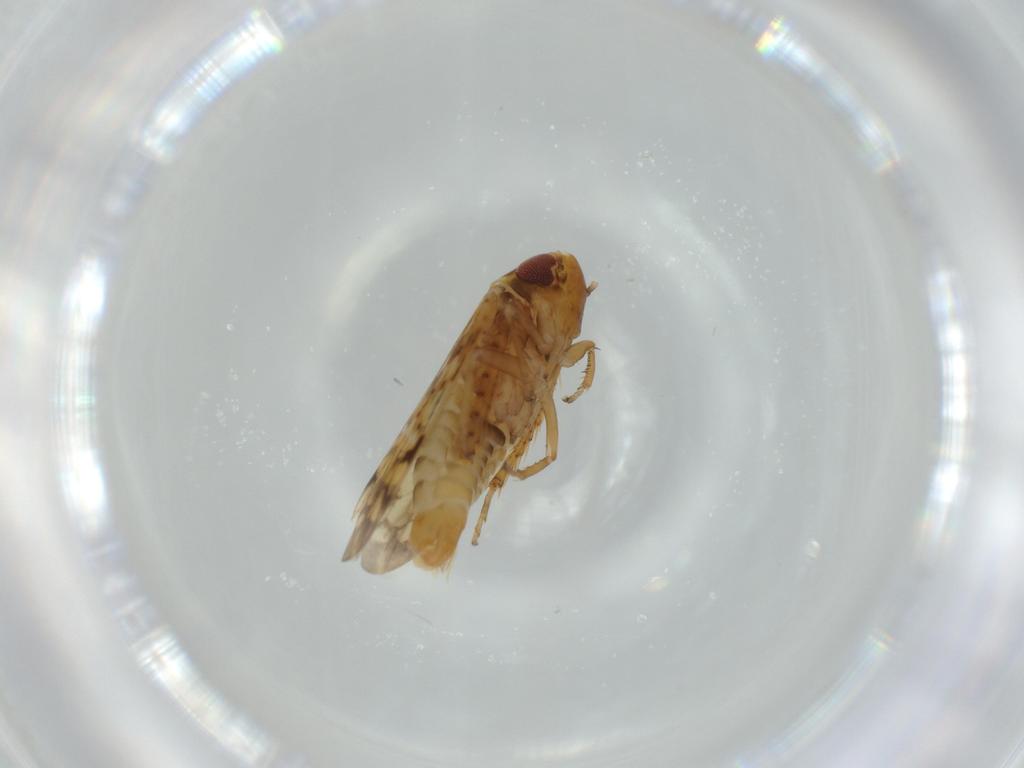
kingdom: Animalia
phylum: Arthropoda
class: Insecta
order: Hemiptera
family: Cicadellidae
